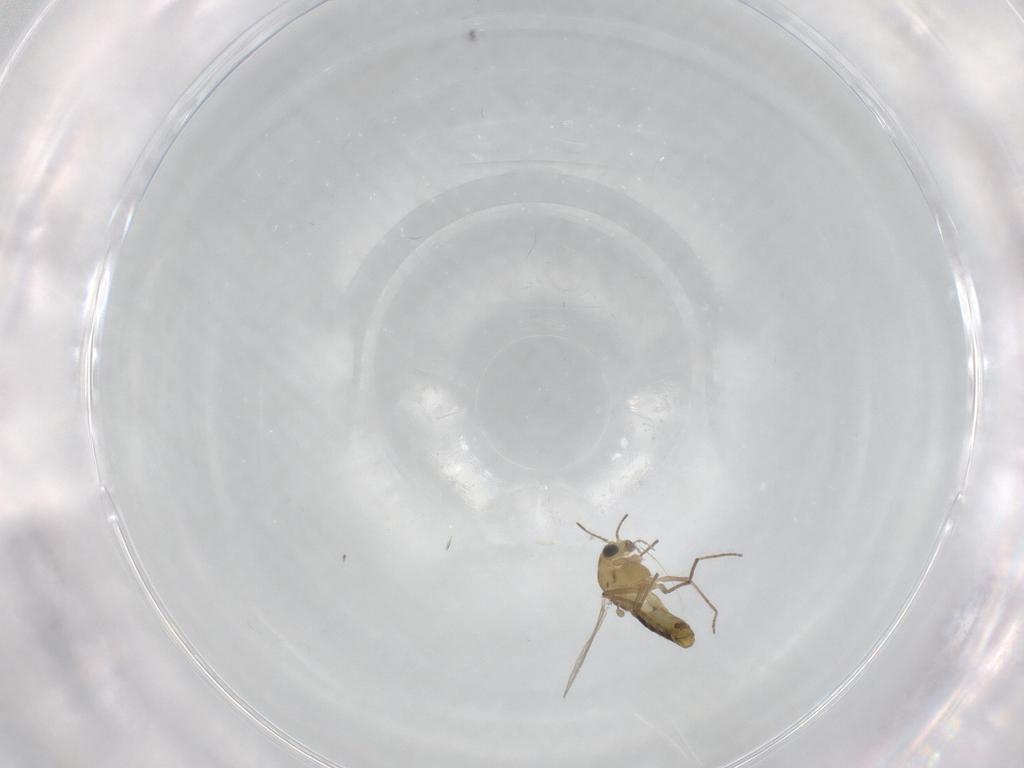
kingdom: Animalia
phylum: Arthropoda
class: Insecta
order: Diptera
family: Chironomidae
